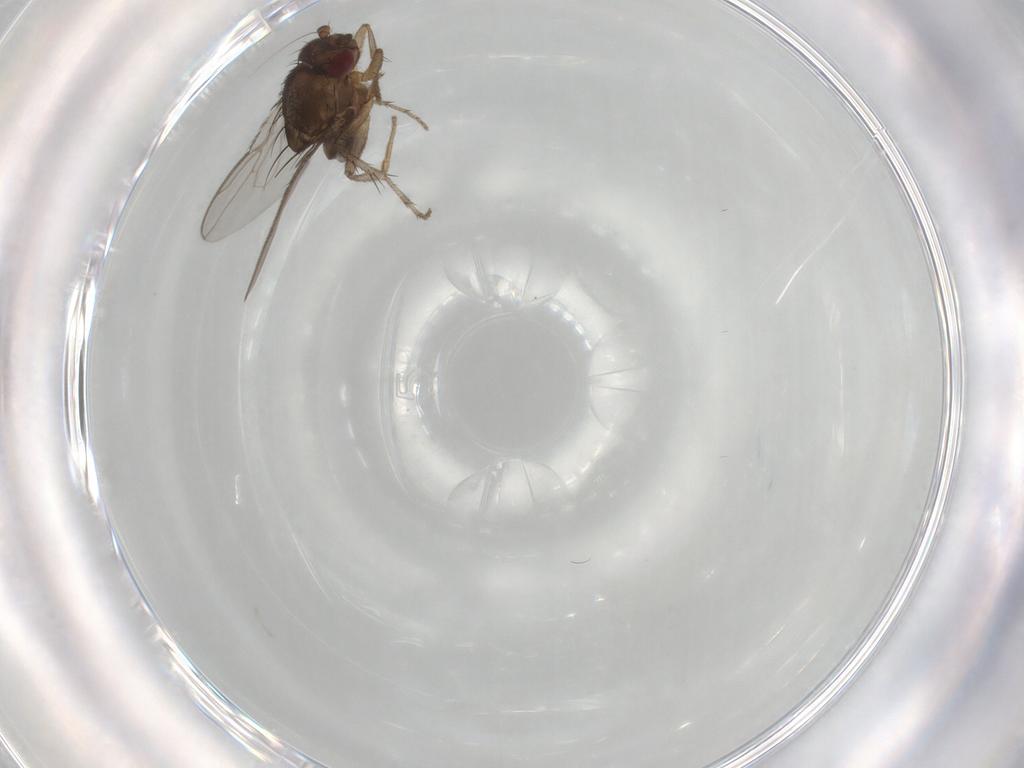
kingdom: Animalia
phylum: Arthropoda
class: Insecta
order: Diptera
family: Sphaeroceridae
